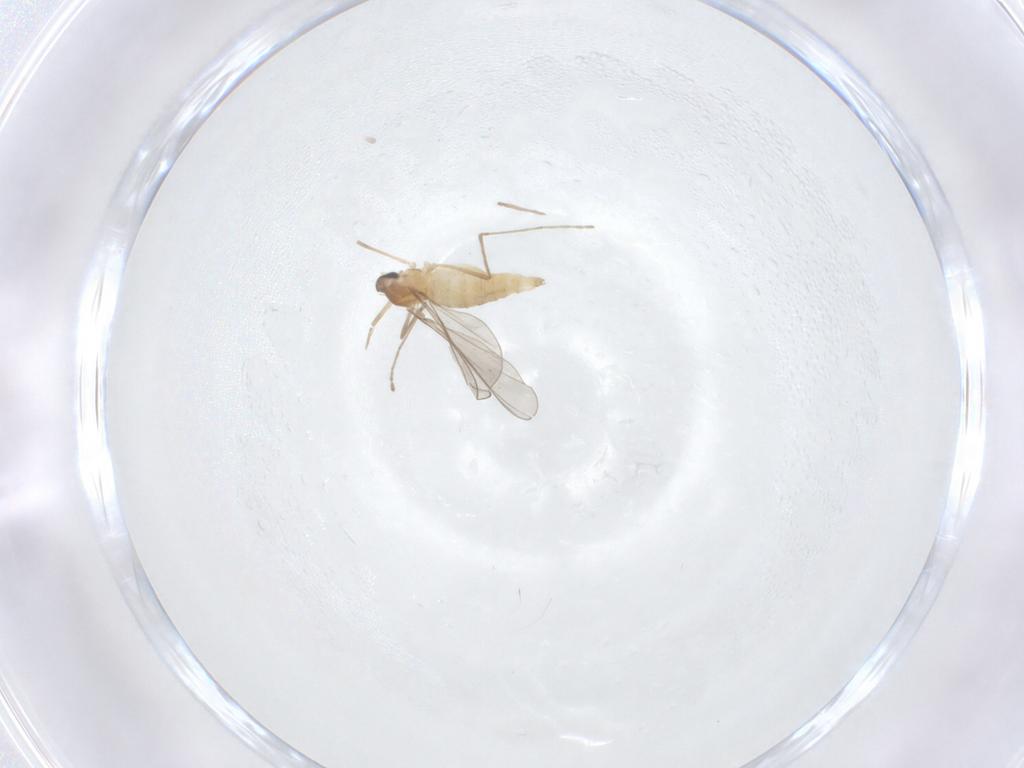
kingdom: Animalia
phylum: Arthropoda
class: Insecta
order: Diptera
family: Cecidomyiidae
